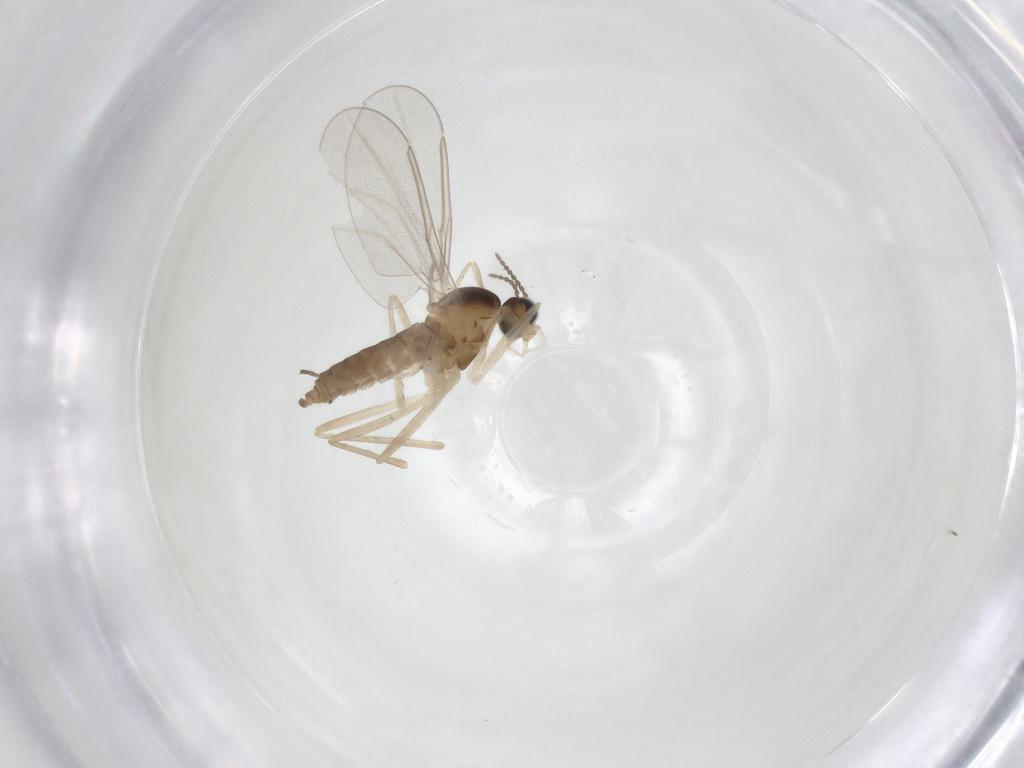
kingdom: Animalia
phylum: Arthropoda
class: Insecta
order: Diptera
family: Cecidomyiidae
